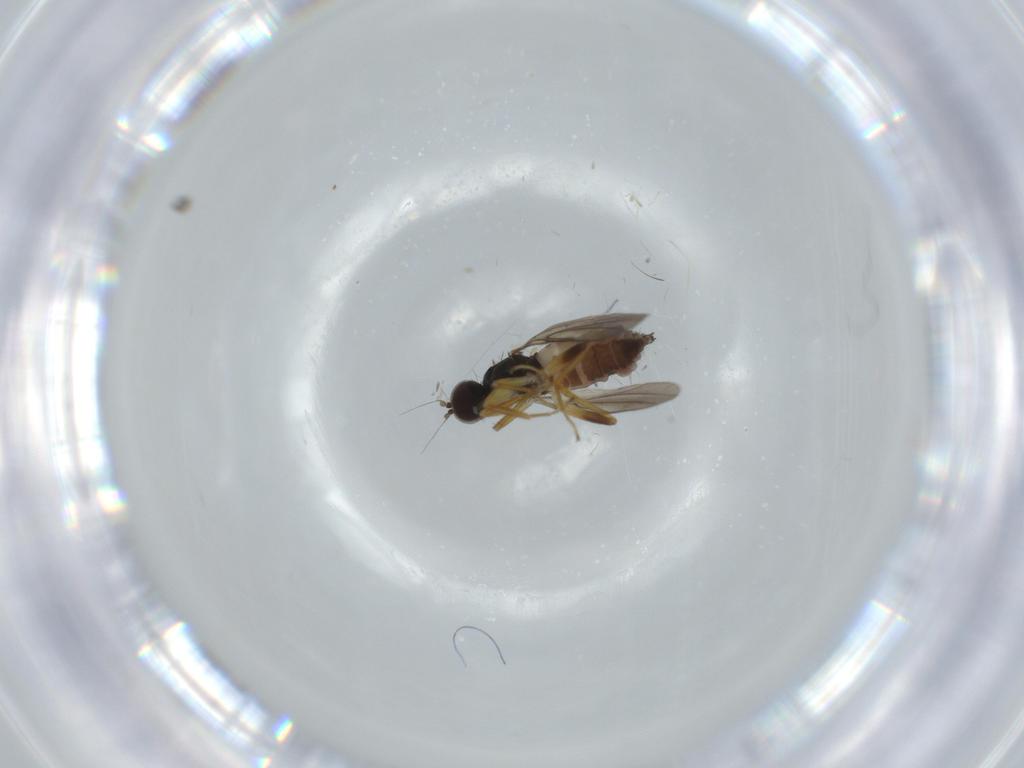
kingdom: Animalia
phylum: Arthropoda
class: Insecta
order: Diptera
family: Hybotidae
